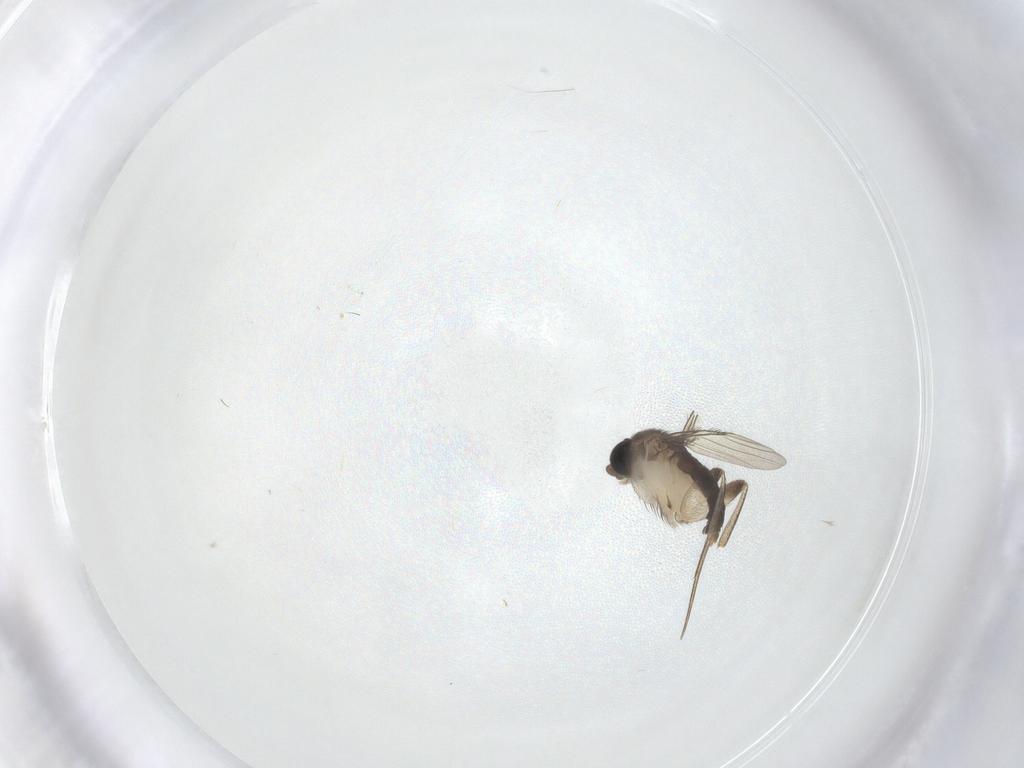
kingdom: Animalia
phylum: Arthropoda
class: Insecta
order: Diptera
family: Phoridae
